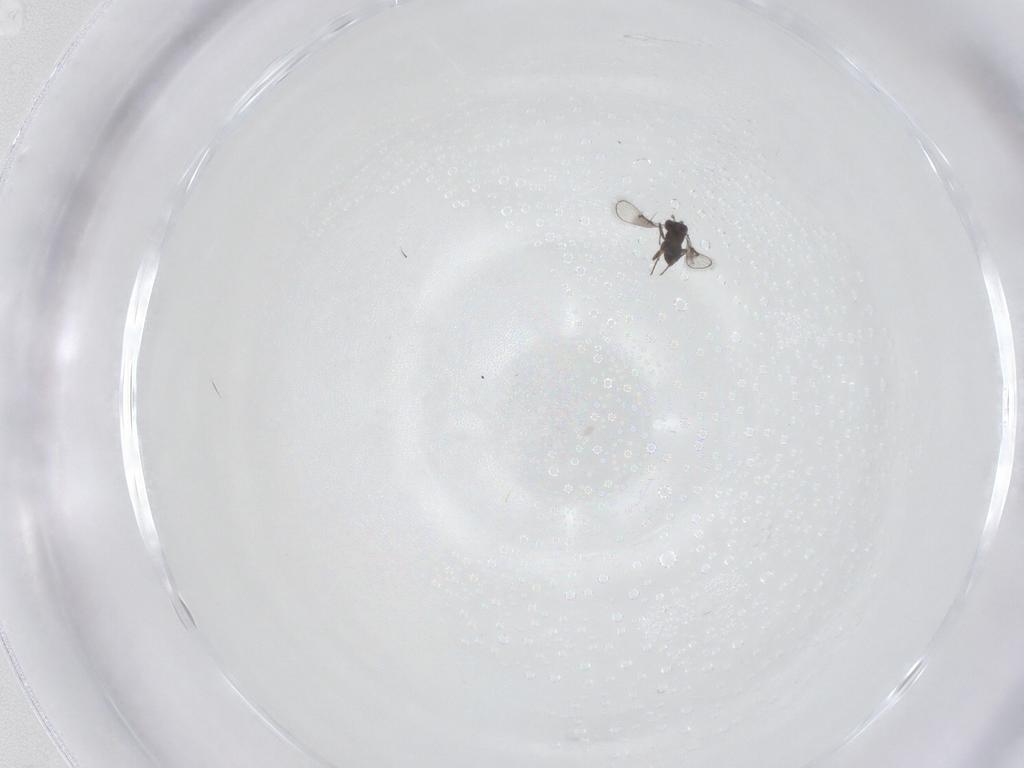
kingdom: Animalia
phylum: Arthropoda
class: Insecta
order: Hymenoptera
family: Trichogrammatidae
